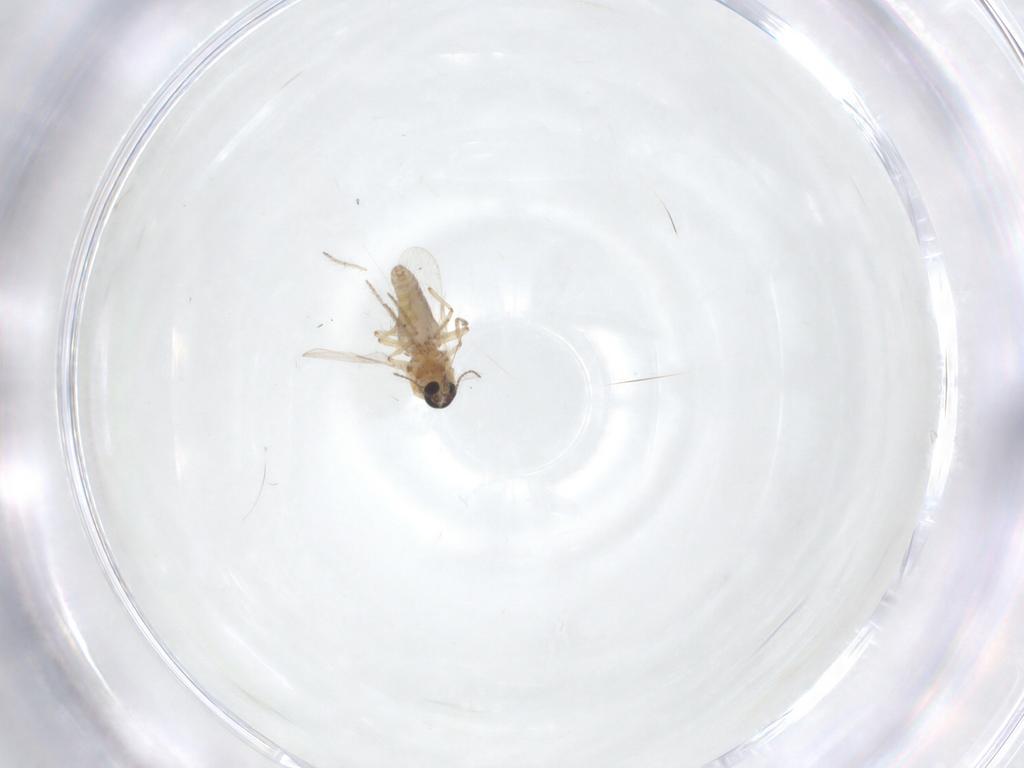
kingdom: Animalia
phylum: Arthropoda
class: Insecta
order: Diptera
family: Ceratopogonidae
